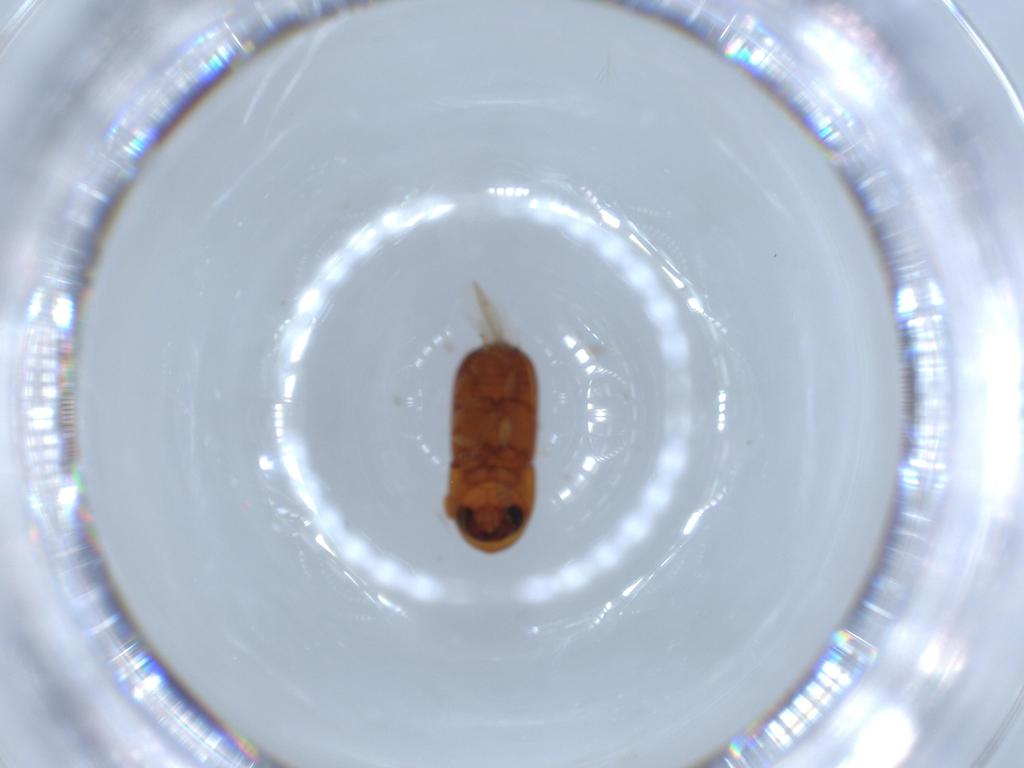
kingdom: Animalia
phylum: Arthropoda
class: Insecta
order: Coleoptera
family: Curculionidae
